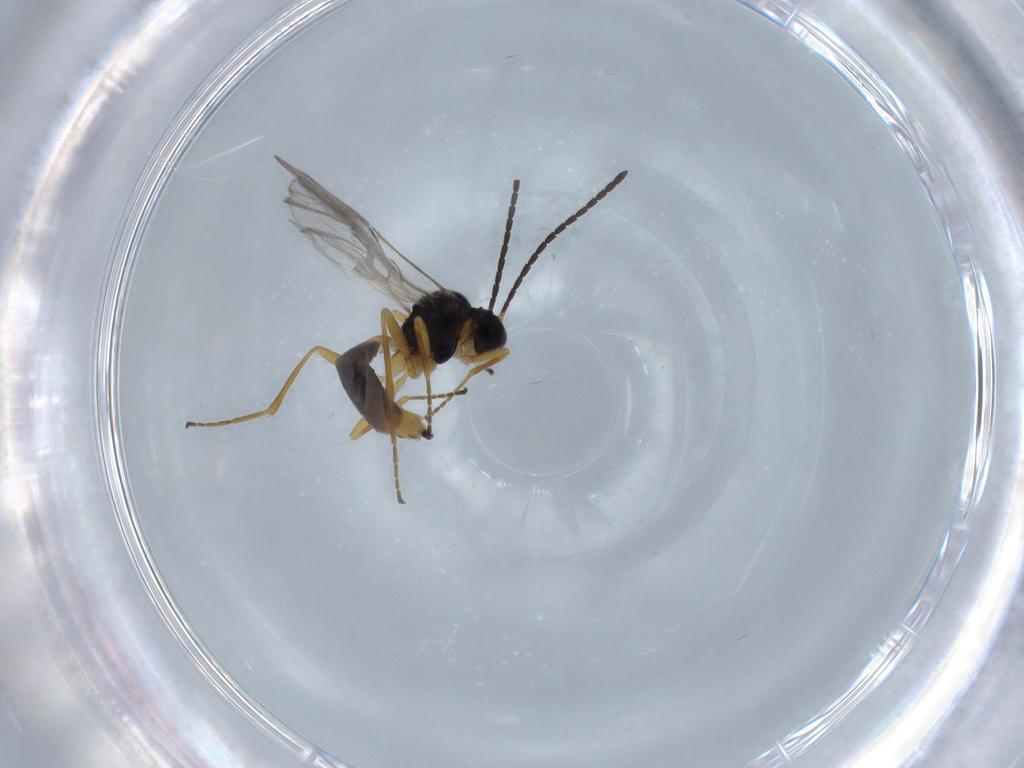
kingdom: Animalia
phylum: Arthropoda
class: Insecta
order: Hymenoptera
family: Braconidae
